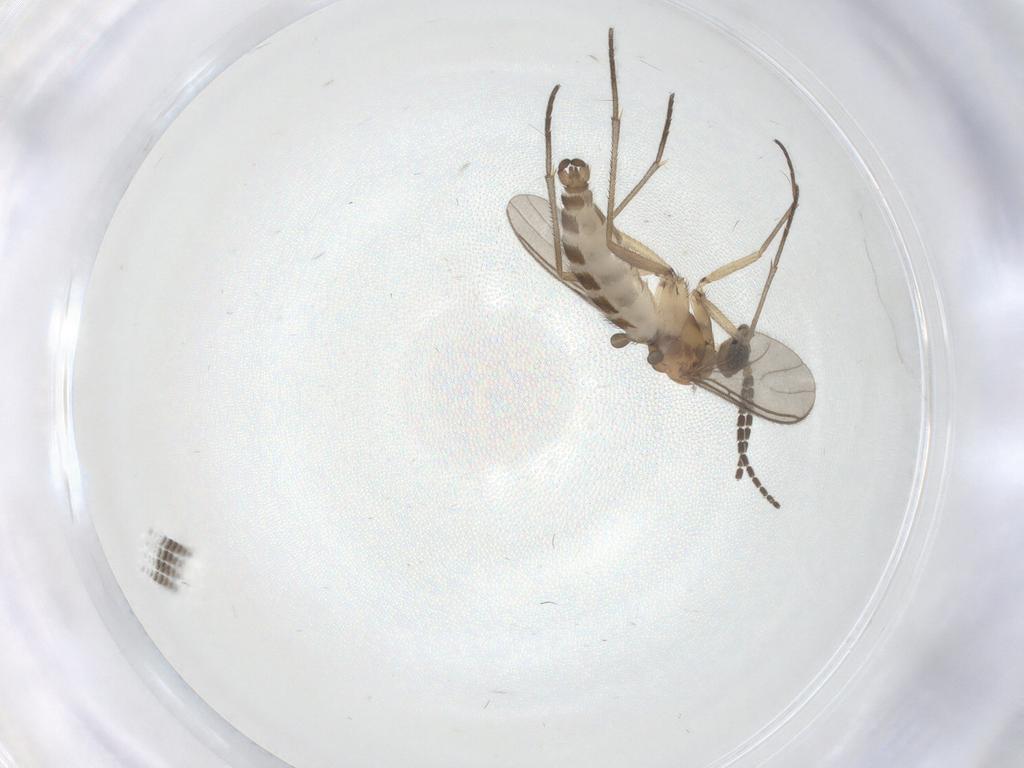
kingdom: Animalia
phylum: Arthropoda
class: Insecta
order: Diptera
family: Sciaridae
